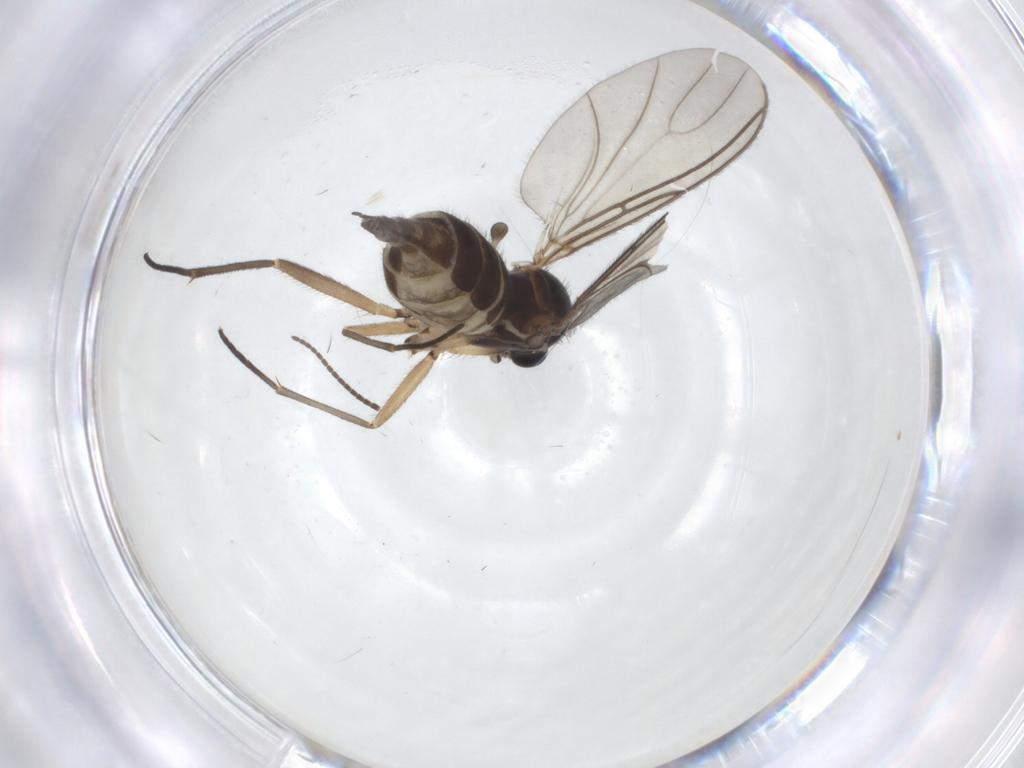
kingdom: Animalia
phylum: Arthropoda
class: Insecta
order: Diptera
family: Sciaridae
